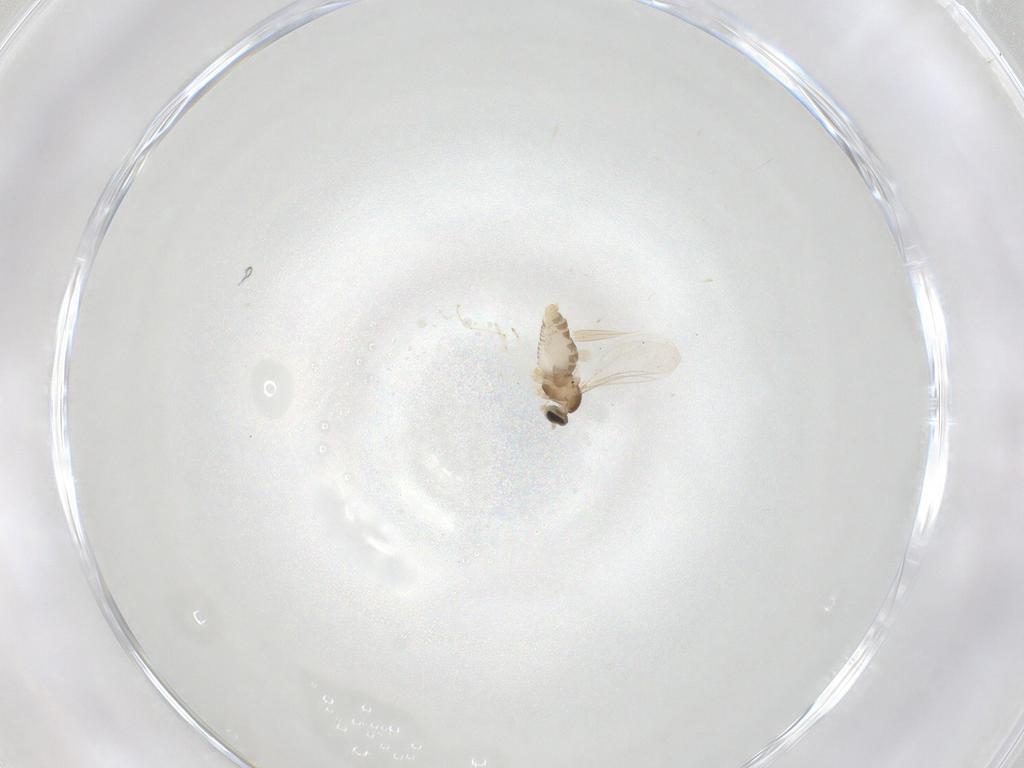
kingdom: Animalia
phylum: Arthropoda
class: Insecta
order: Diptera
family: Cecidomyiidae
